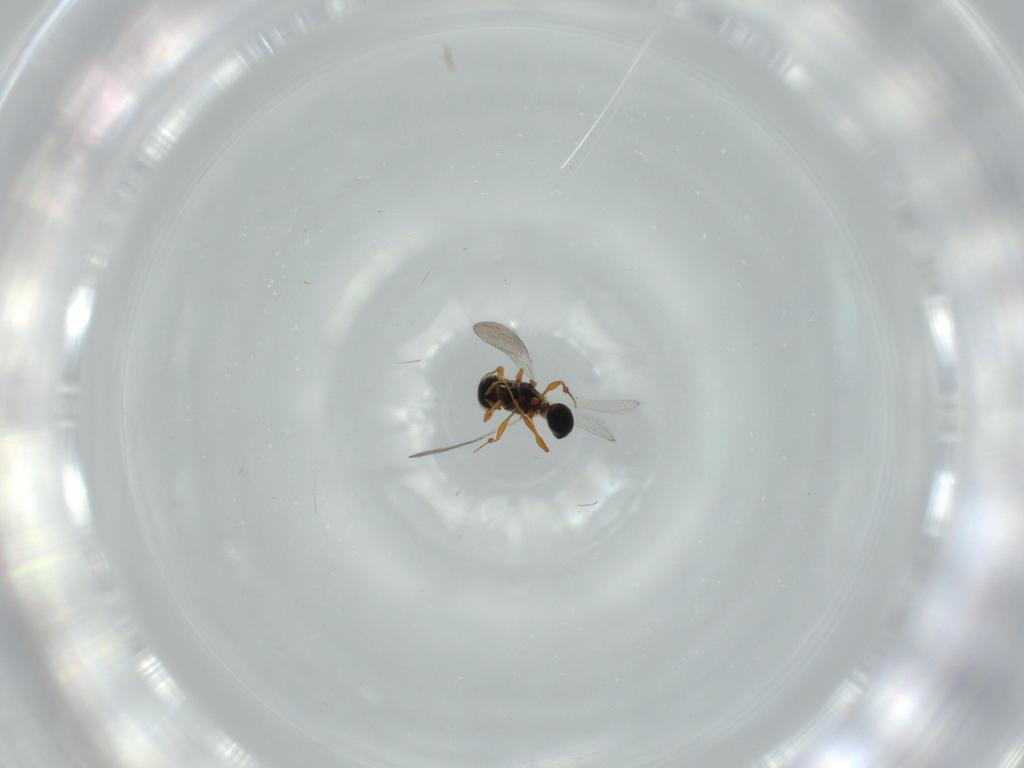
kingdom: Animalia
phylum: Arthropoda
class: Insecta
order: Hymenoptera
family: Platygastridae
